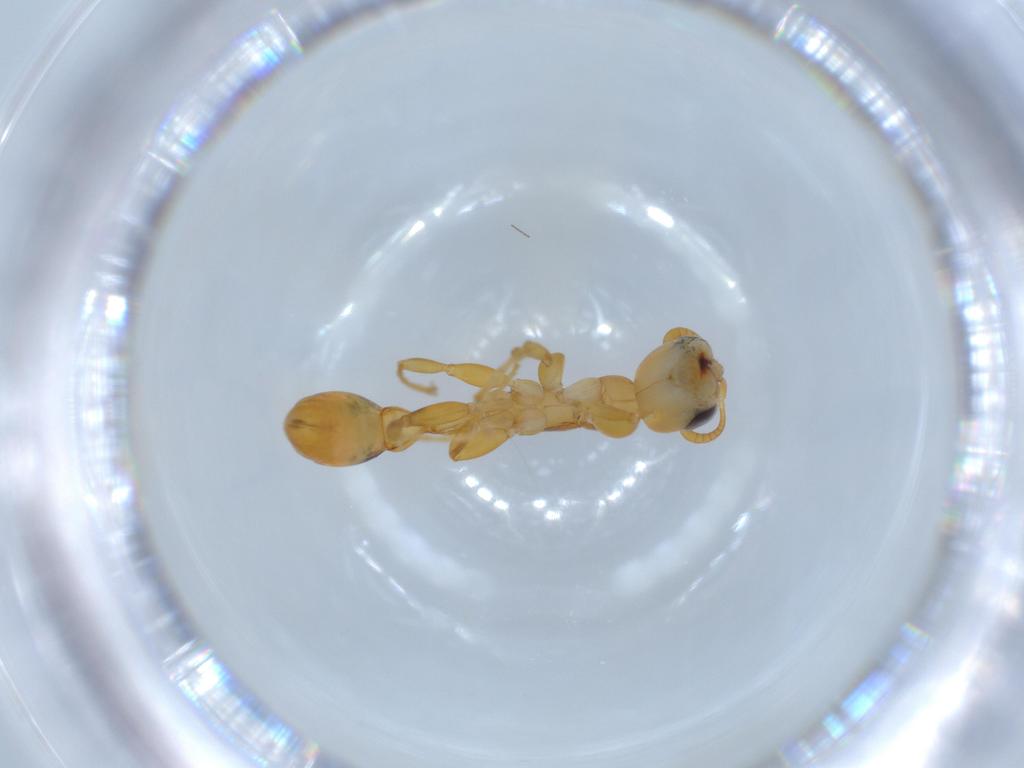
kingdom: Animalia
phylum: Arthropoda
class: Insecta
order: Hymenoptera
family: Formicidae
